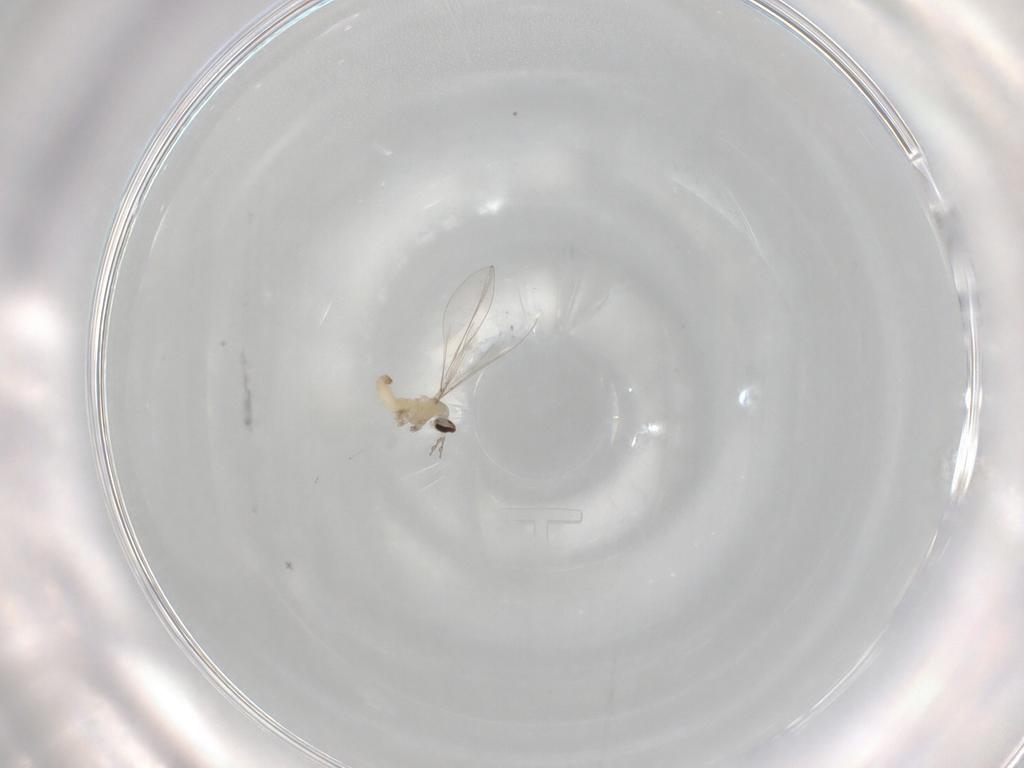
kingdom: Animalia
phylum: Arthropoda
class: Insecta
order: Diptera
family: Cecidomyiidae
